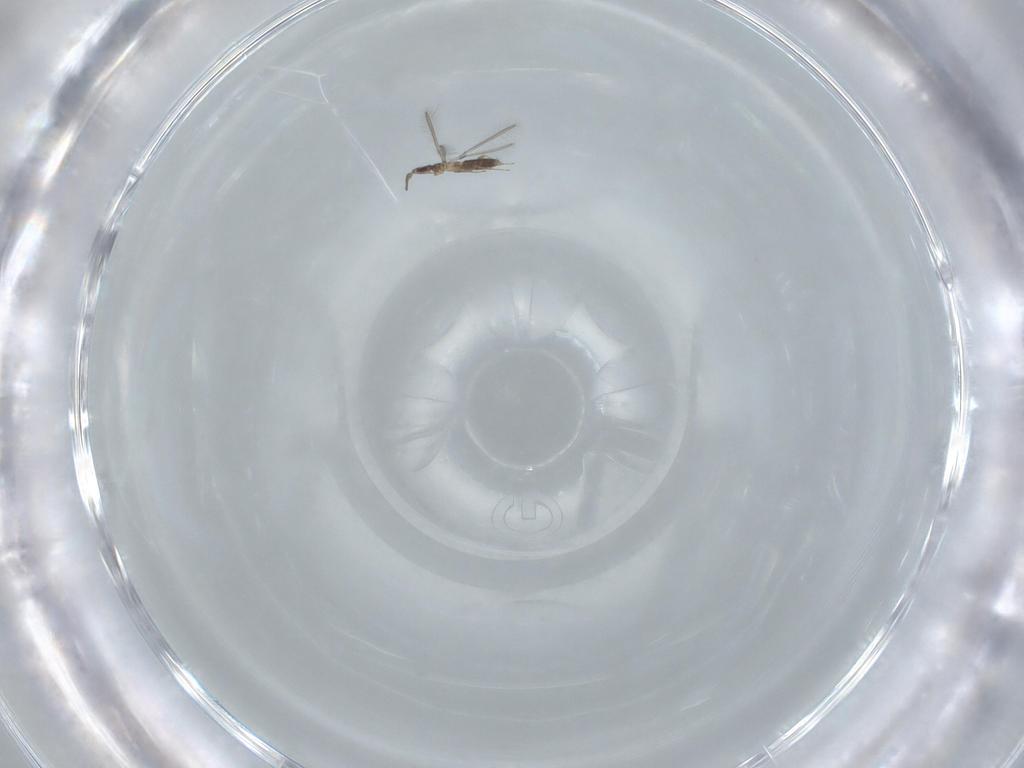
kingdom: Animalia
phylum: Arthropoda
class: Insecta
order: Hymenoptera
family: Mymaridae
